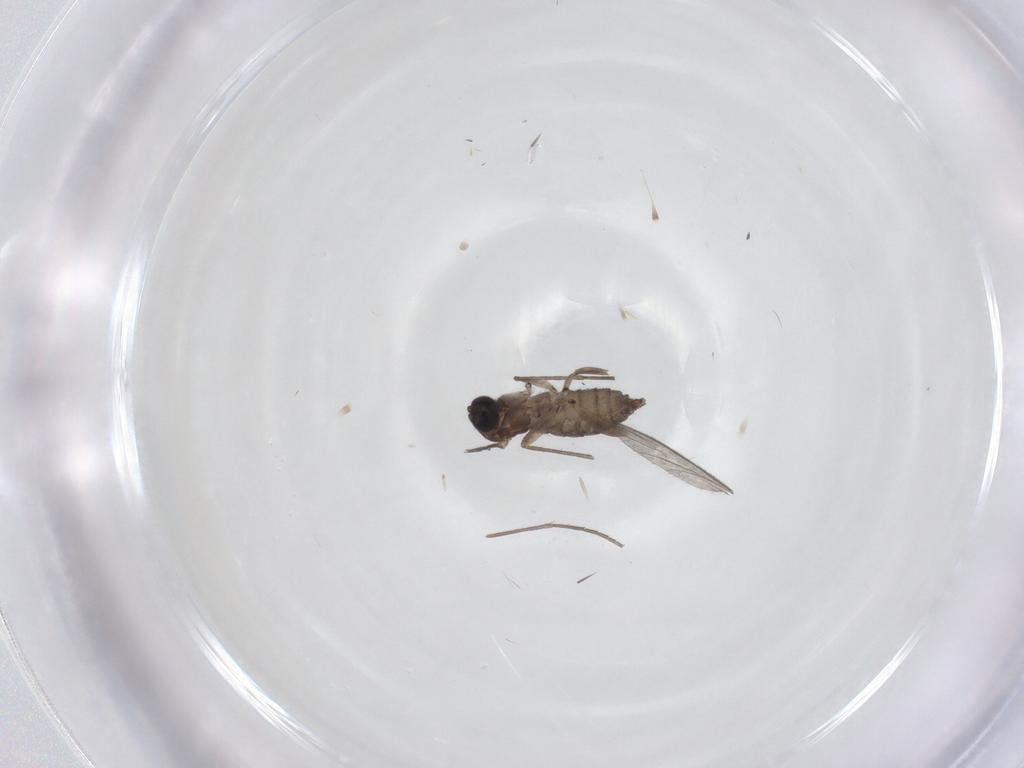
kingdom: Animalia
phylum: Arthropoda
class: Insecta
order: Diptera
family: Sciaridae
